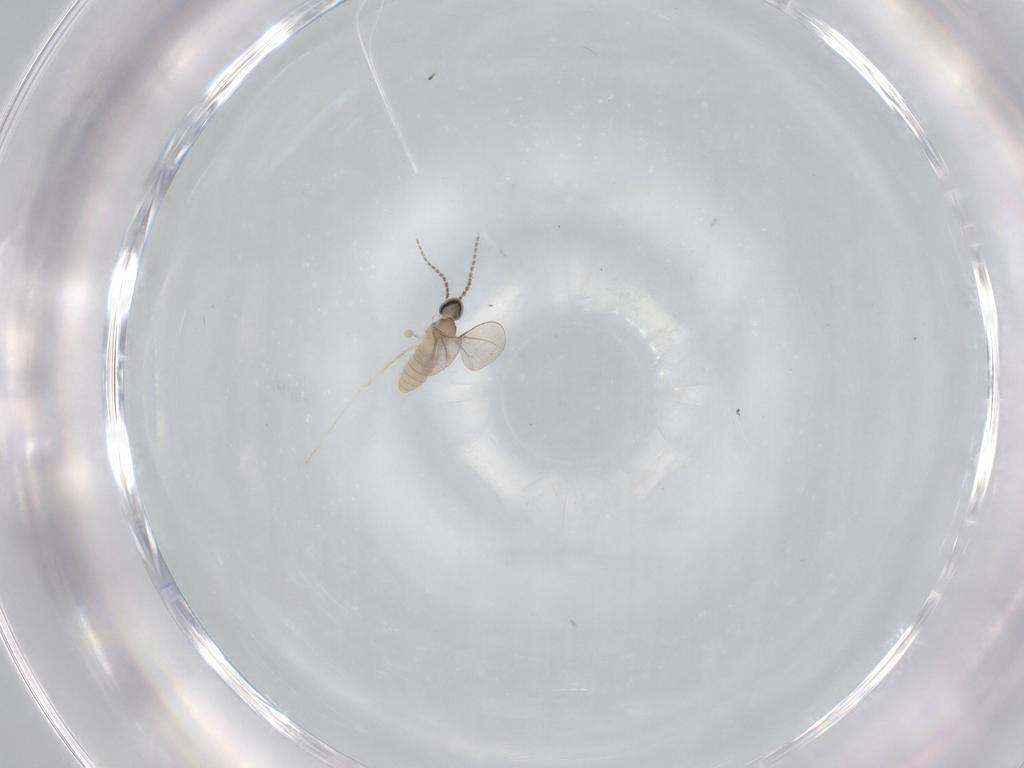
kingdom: Animalia
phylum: Arthropoda
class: Insecta
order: Diptera
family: Cecidomyiidae
